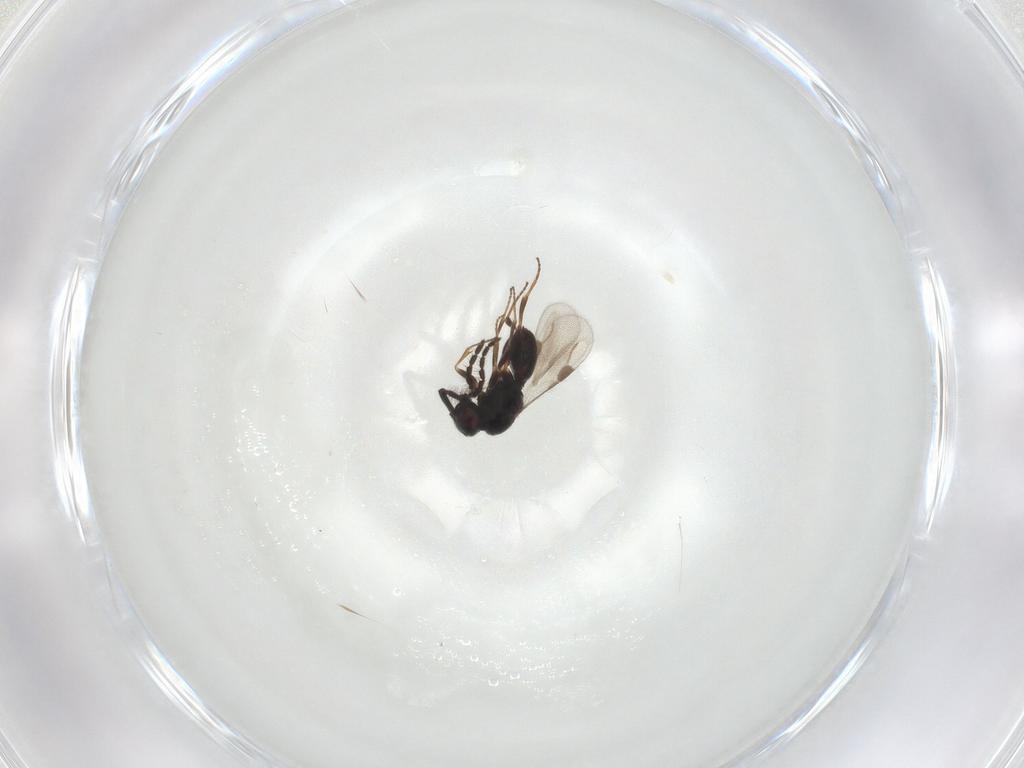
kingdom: Animalia
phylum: Arthropoda
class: Insecta
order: Hymenoptera
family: Megaspilidae
